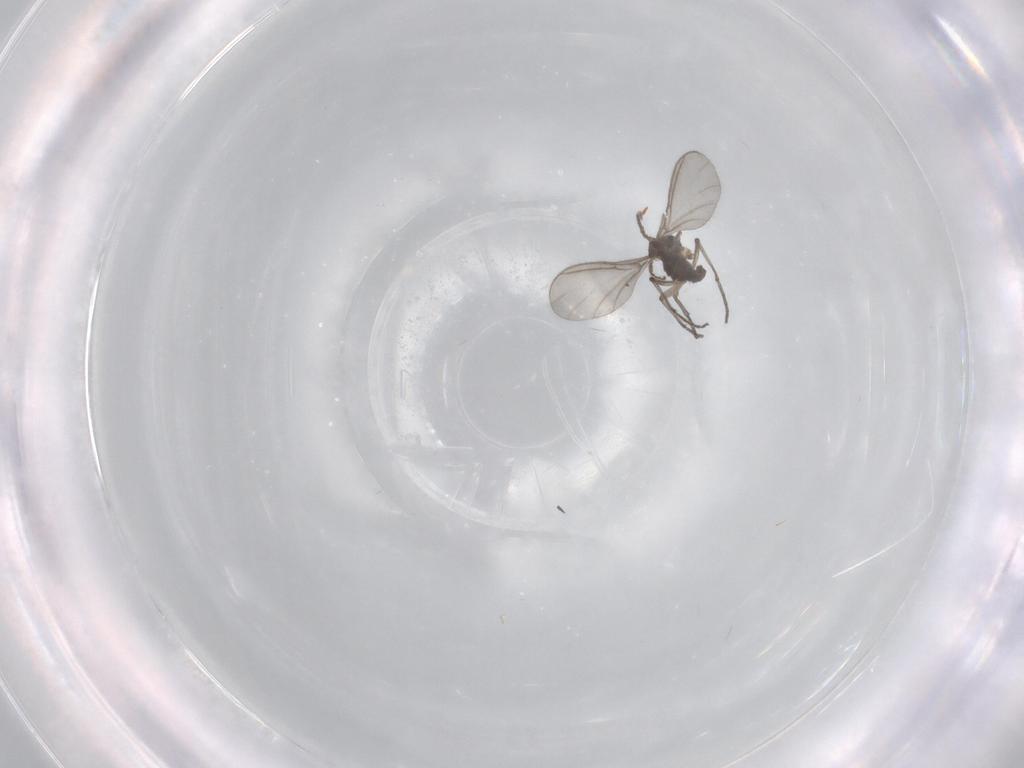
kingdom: Animalia
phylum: Arthropoda
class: Insecta
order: Diptera
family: Sciaridae
